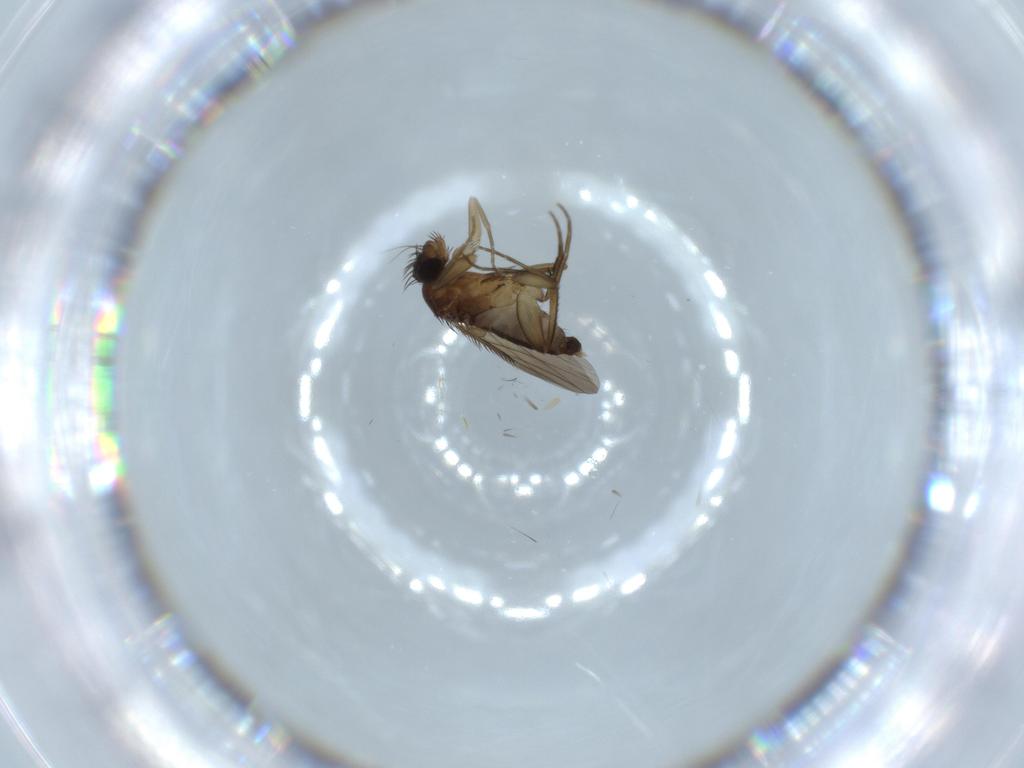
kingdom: Animalia
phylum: Arthropoda
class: Insecta
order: Diptera
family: Phoridae
